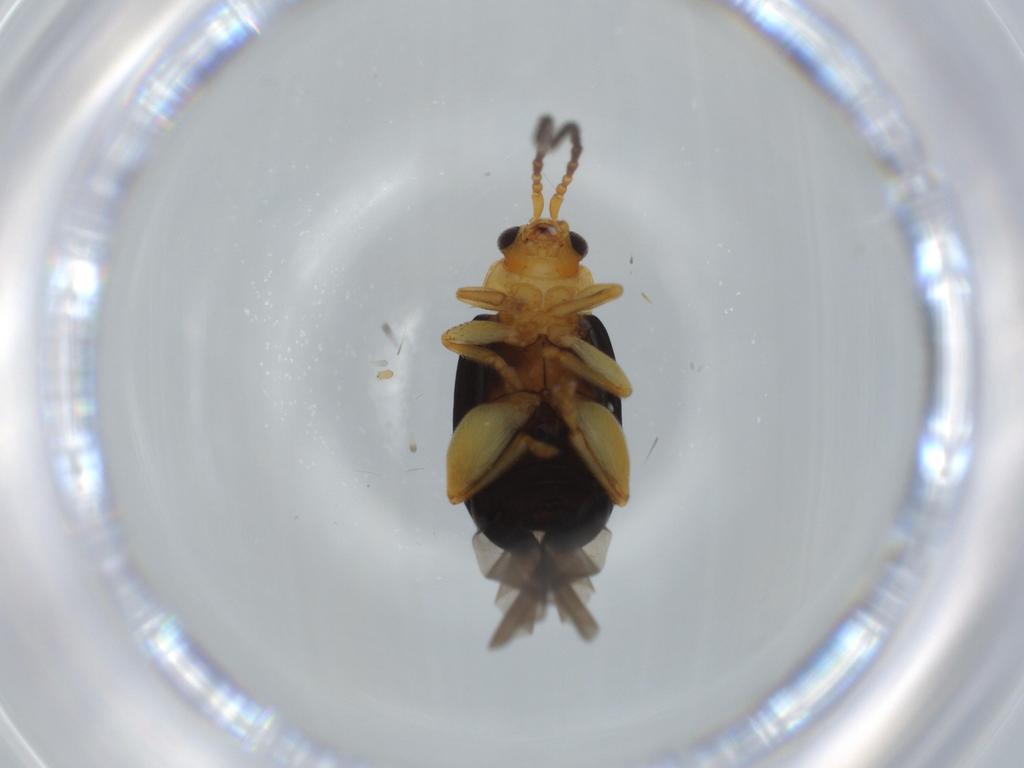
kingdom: Animalia
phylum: Arthropoda
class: Insecta
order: Coleoptera
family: Chrysomelidae
